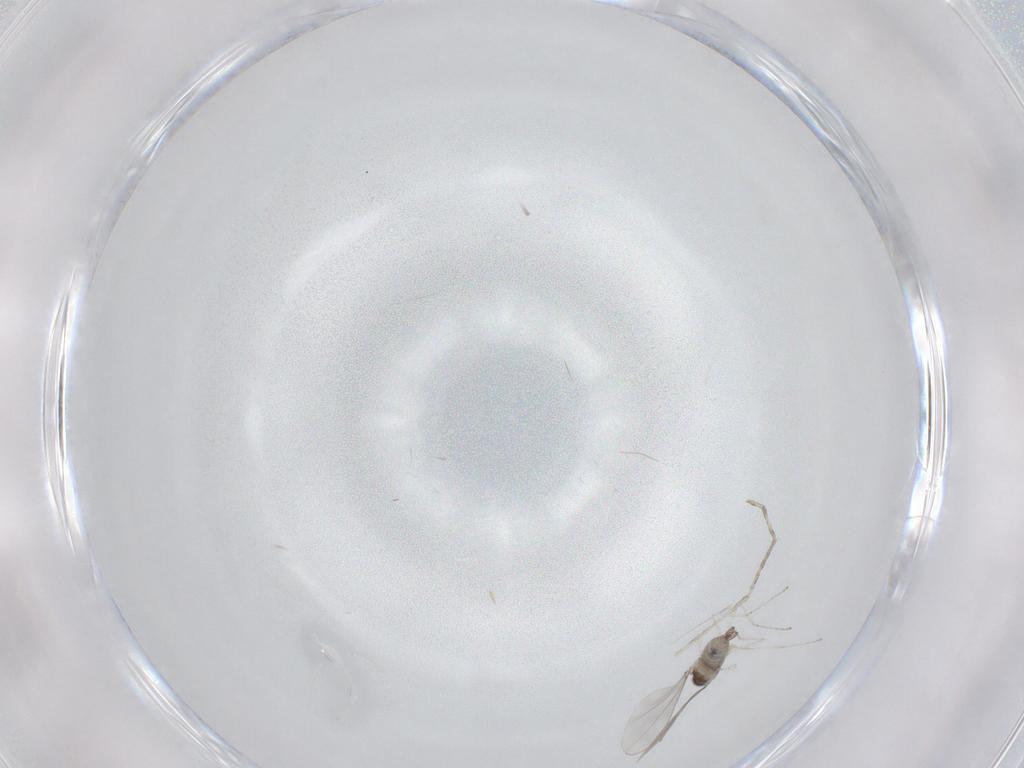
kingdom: Animalia
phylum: Arthropoda
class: Insecta
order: Diptera
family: Cecidomyiidae
